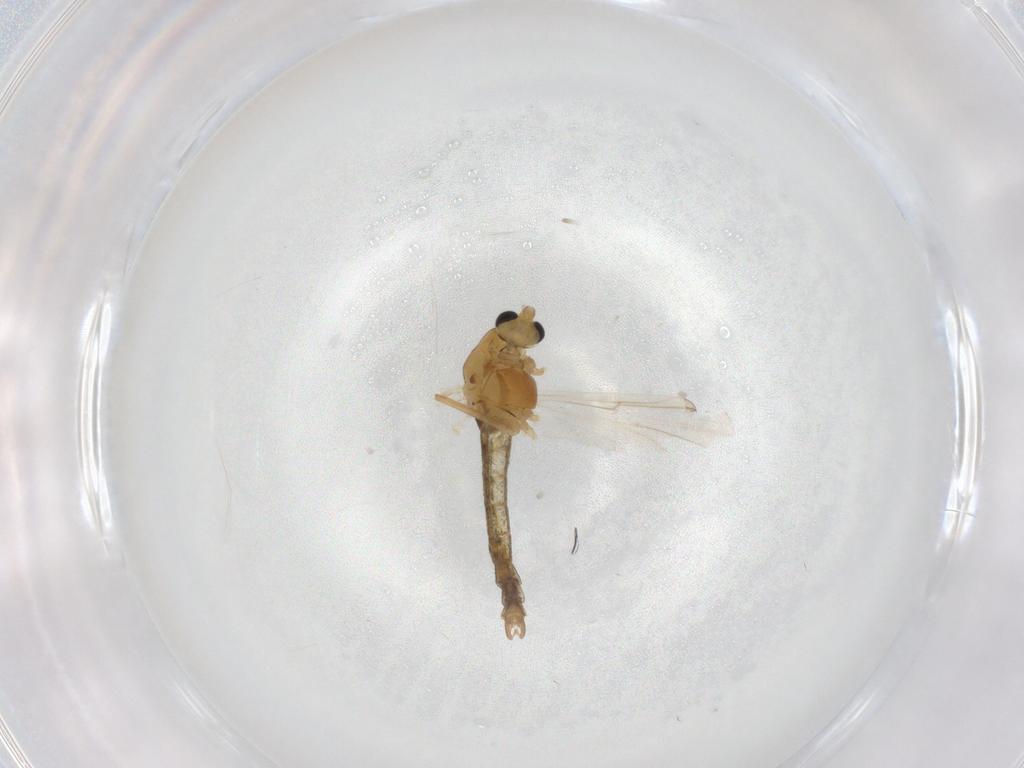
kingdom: Animalia
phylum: Arthropoda
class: Insecta
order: Diptera
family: Chironomidae
